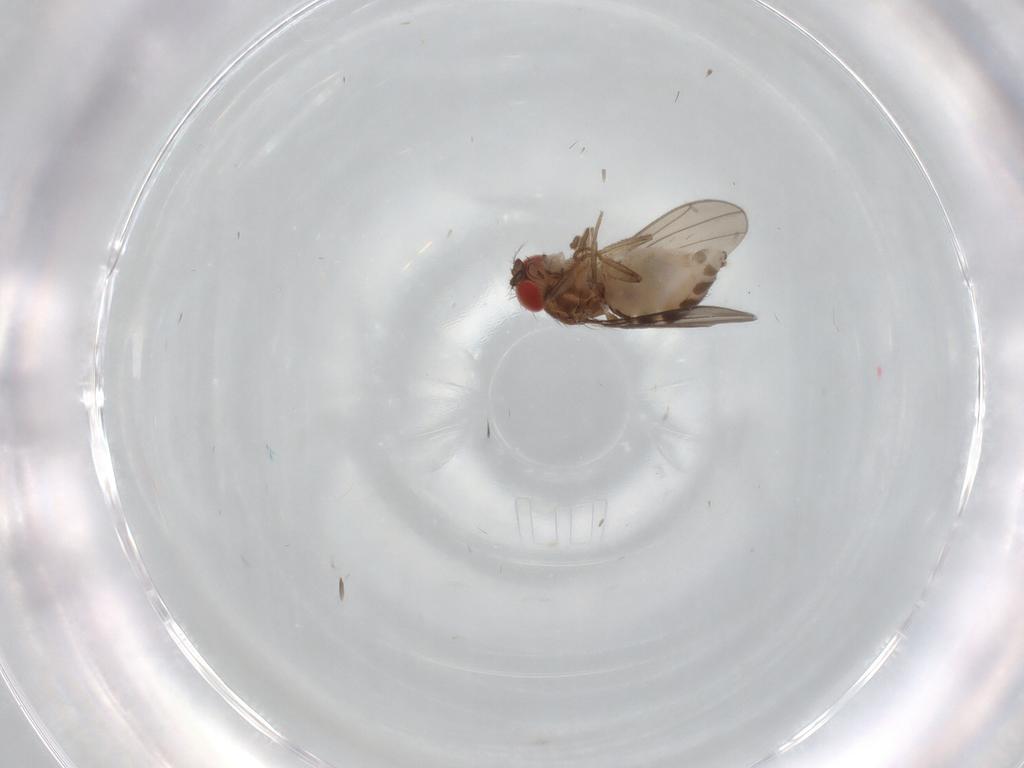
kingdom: Animalia
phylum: Arthropoda
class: Insecta
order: Diptera
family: Drosophilidae
